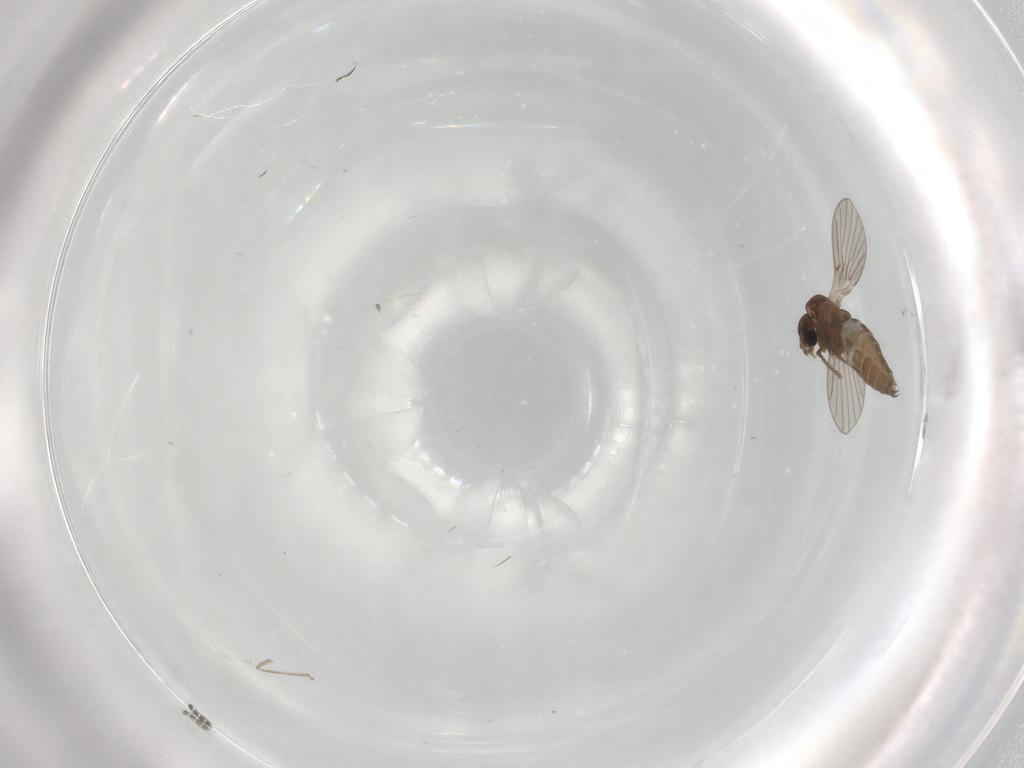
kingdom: Animalia
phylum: Arthropoda
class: Insecta
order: Diptera
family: Chironomidae
